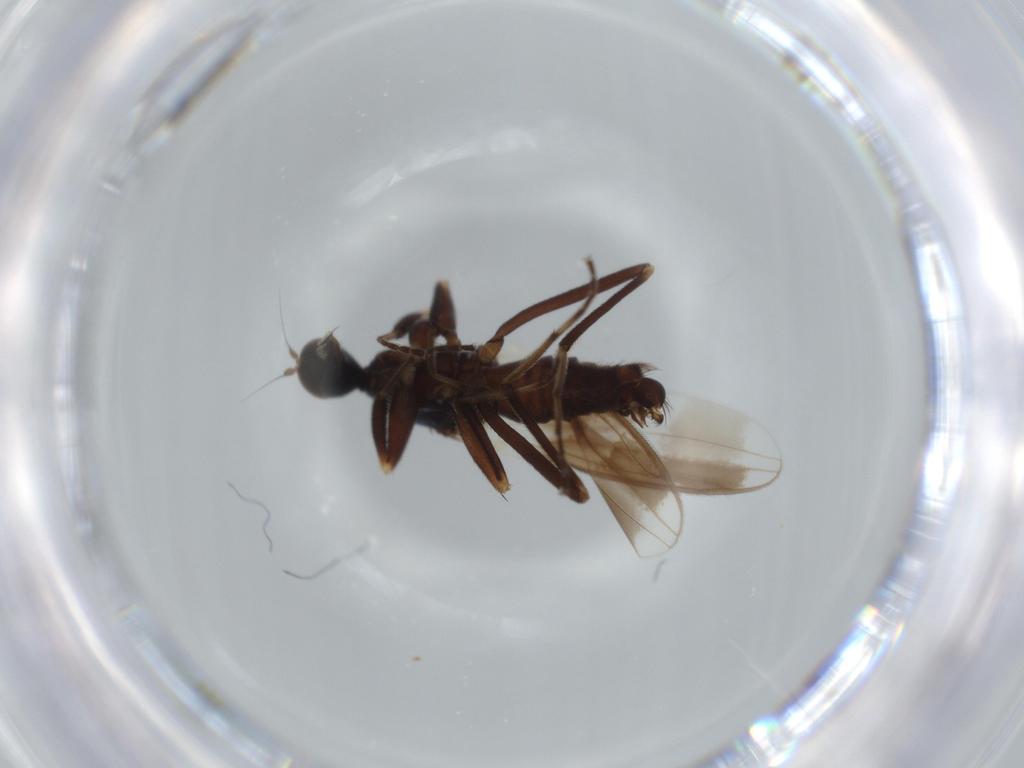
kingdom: Animalia
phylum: Arthropoda
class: Insecta
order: Diptera
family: Hybotidae
